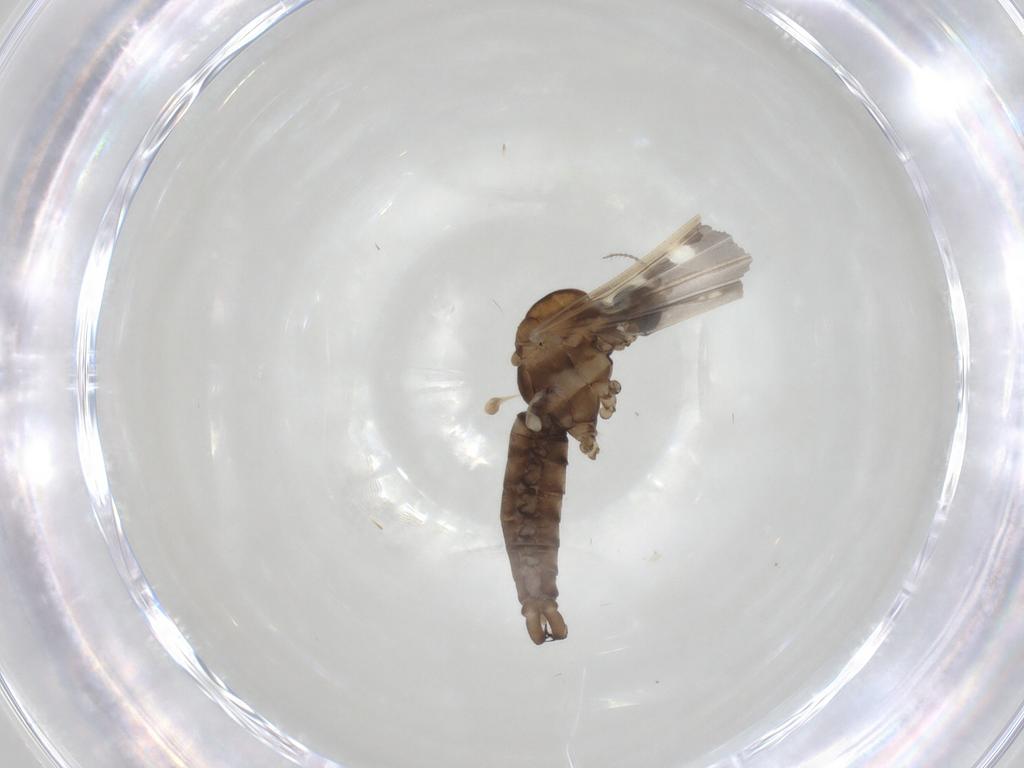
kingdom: Animalia
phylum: Arthropoda
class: Insecta
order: Diptera
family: Limoniidae
